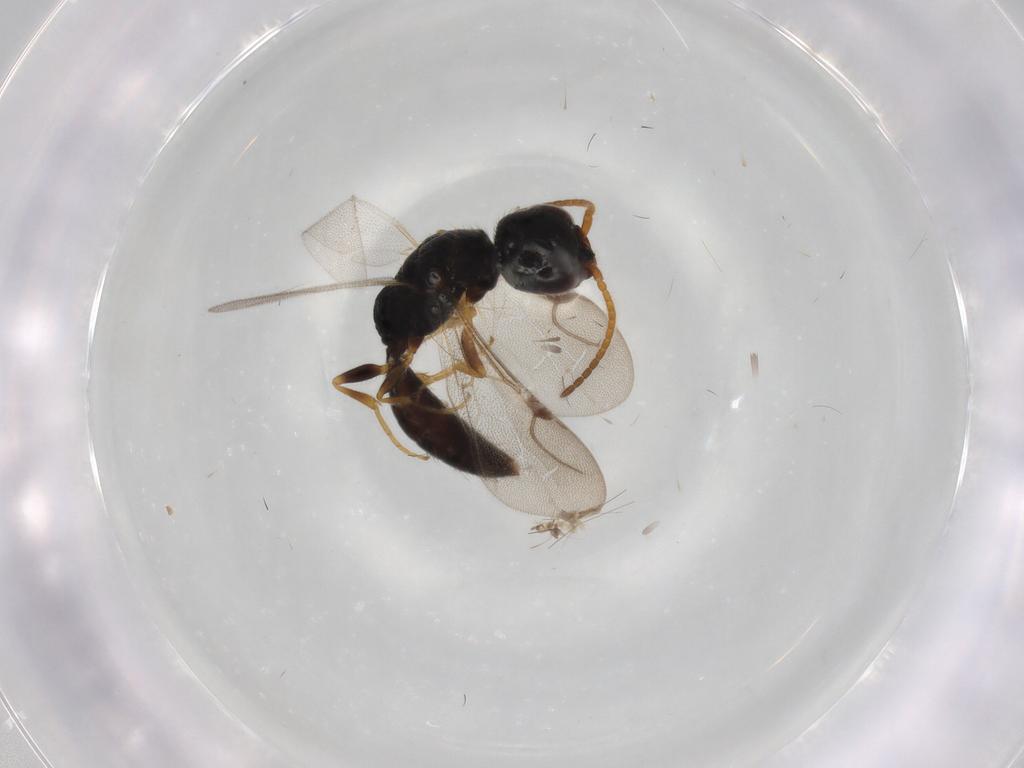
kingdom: Animalia
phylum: Arthropoda
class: Insecta
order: Hymenoptera
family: Bethylidae
